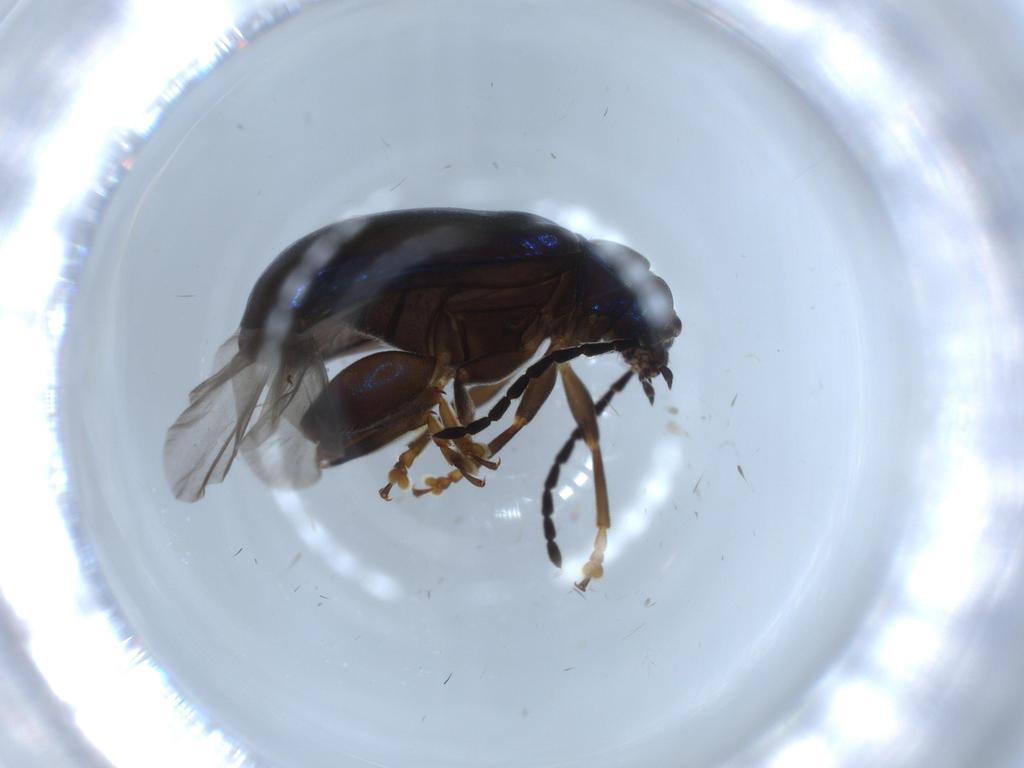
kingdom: Animalia
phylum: Arthropoda
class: Insecta
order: Coleoptera
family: Chrysomelidae
